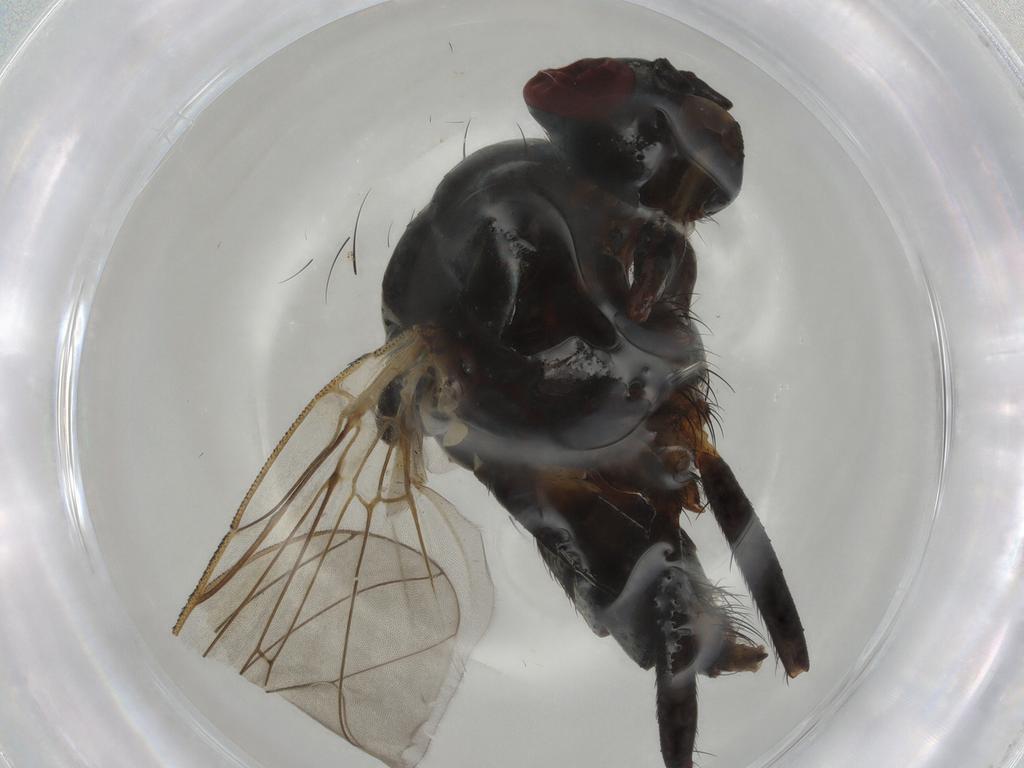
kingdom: Animalia
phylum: Arthropoda
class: Insecta
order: Diptera
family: Anthomyiidae
